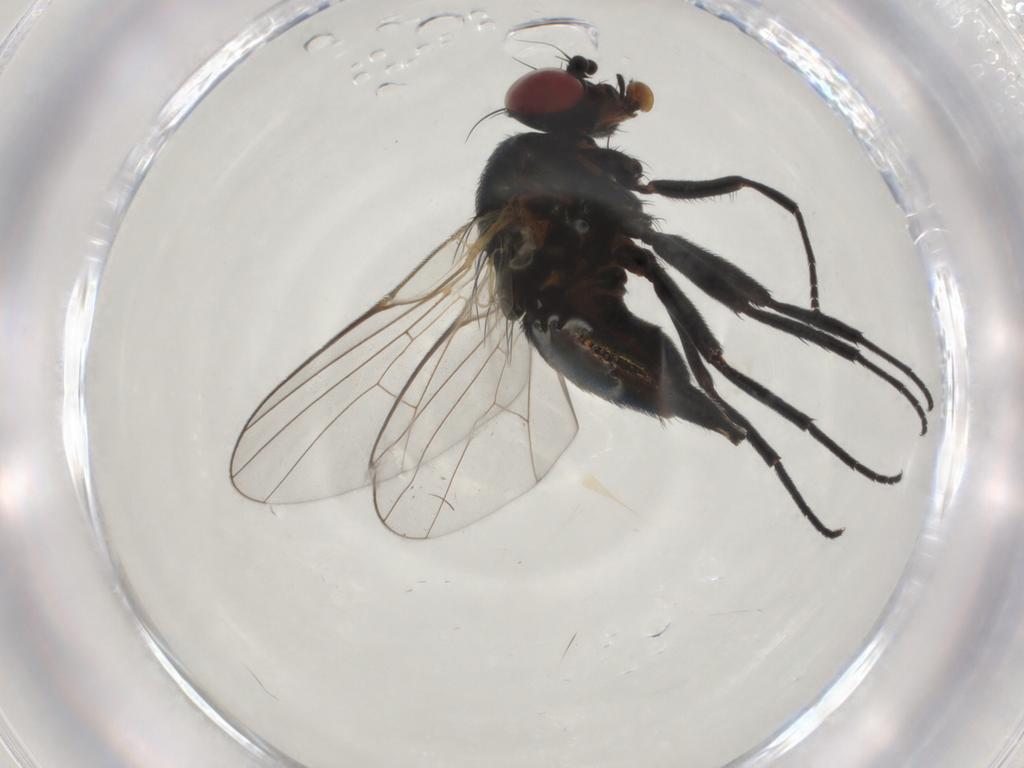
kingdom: Animalia
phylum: Arthropoda
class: Insecta
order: Diptera
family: Agromyzidae
